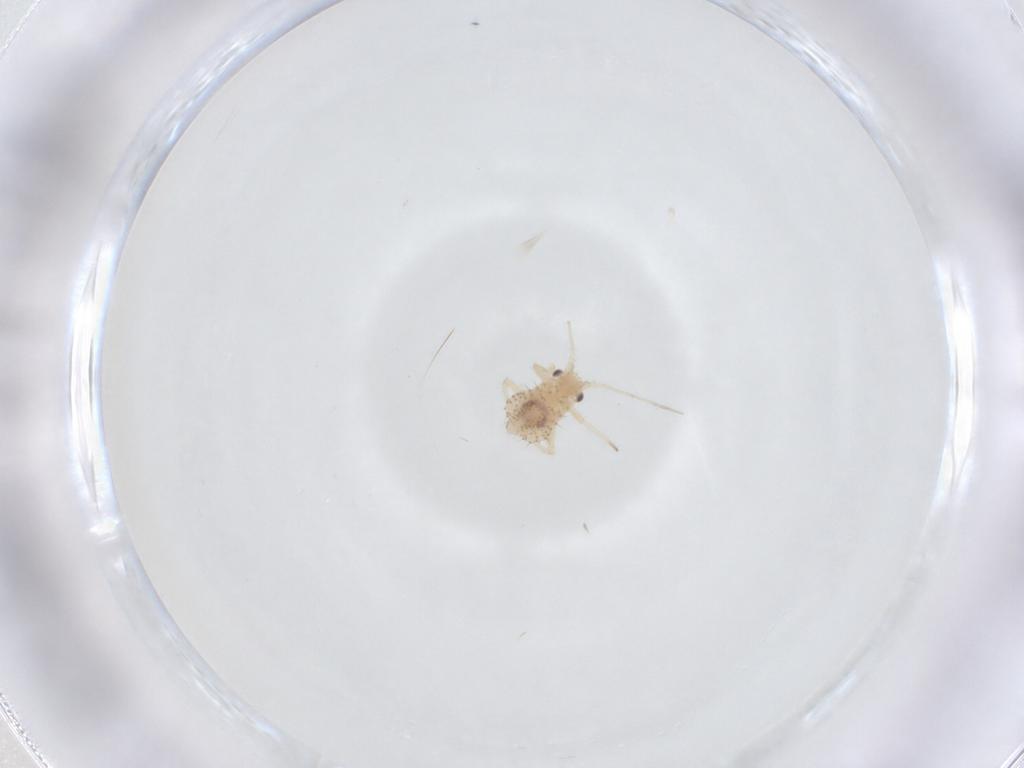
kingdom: Animalia
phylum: Arthropoda
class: Insecta
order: Hemiptera
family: Aphididae
